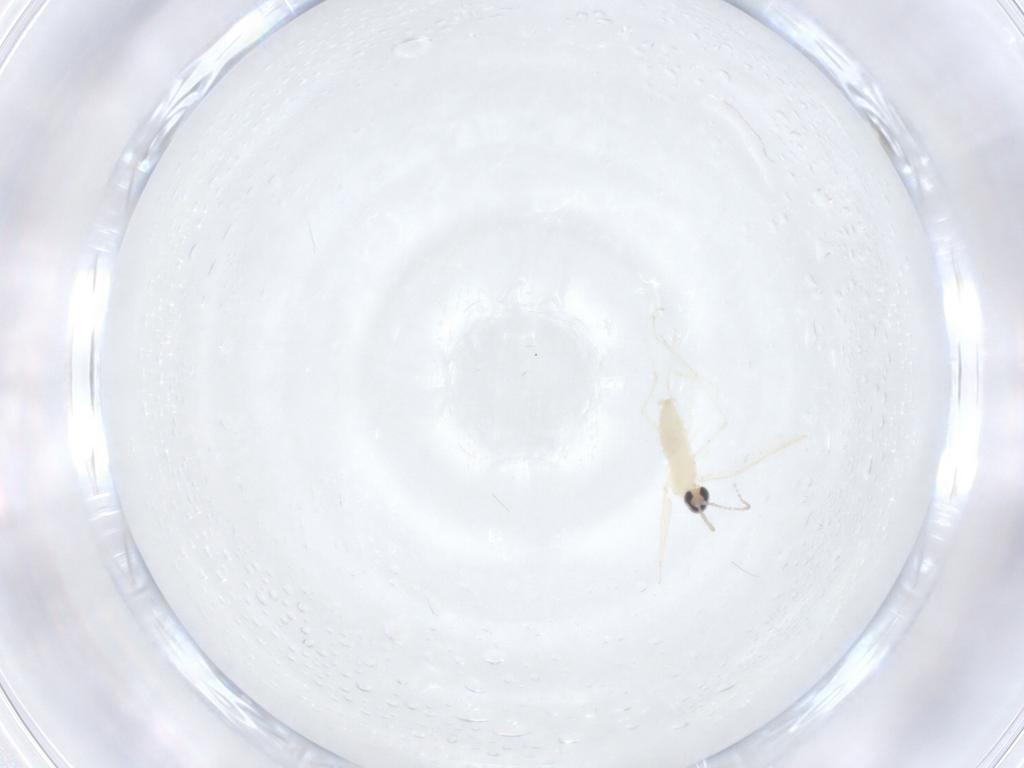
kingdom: Animalia
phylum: Arthropoda
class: Insecta
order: Diptera
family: Cecidomyiidae
